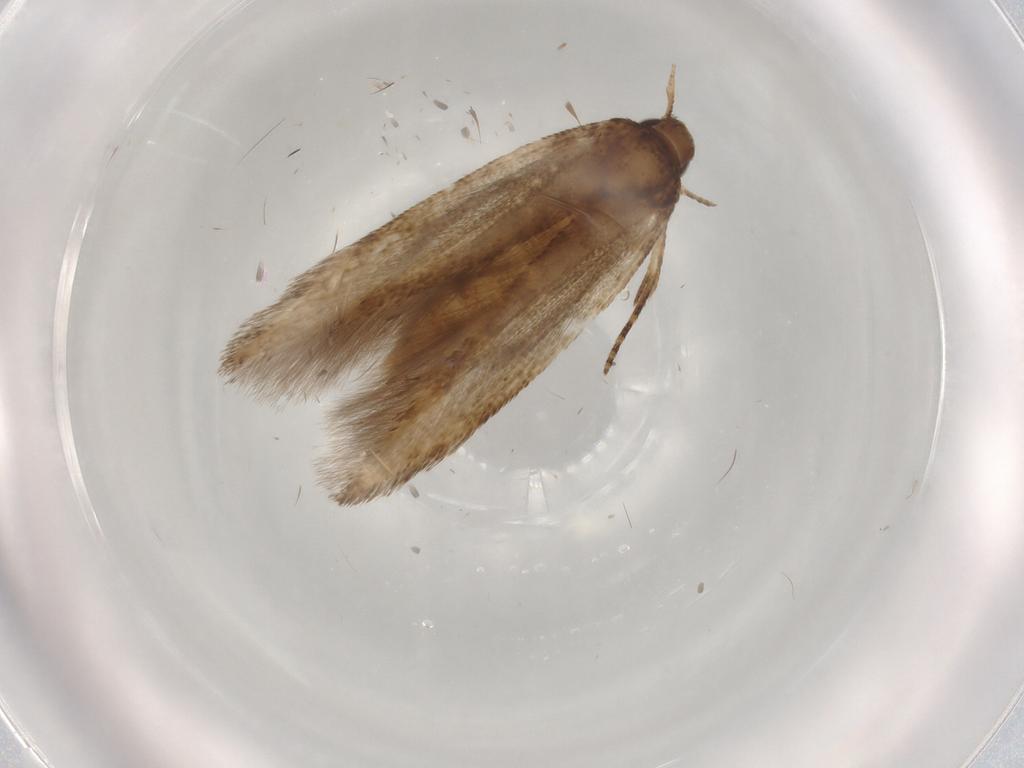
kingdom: Animalia
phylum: Arthropoda
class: Insecta
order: Lepidoptera
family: Cosmopterigidae
